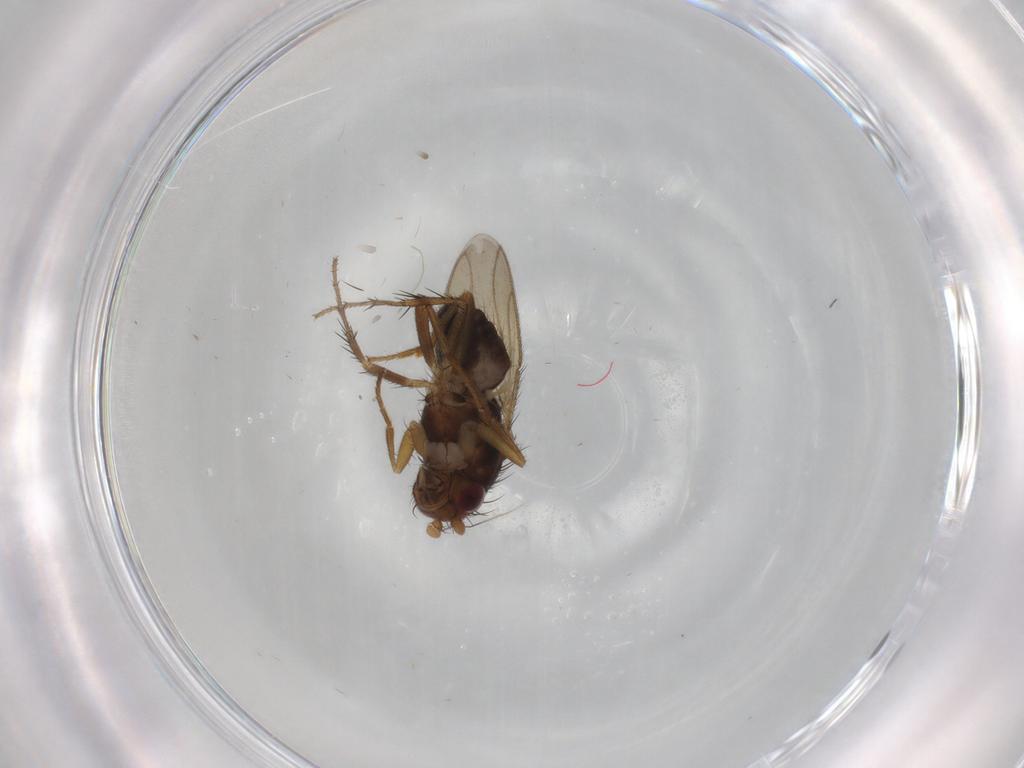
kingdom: Animalia
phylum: Arthropoda
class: Insecta
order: Diptera
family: Sphaeroceridae
